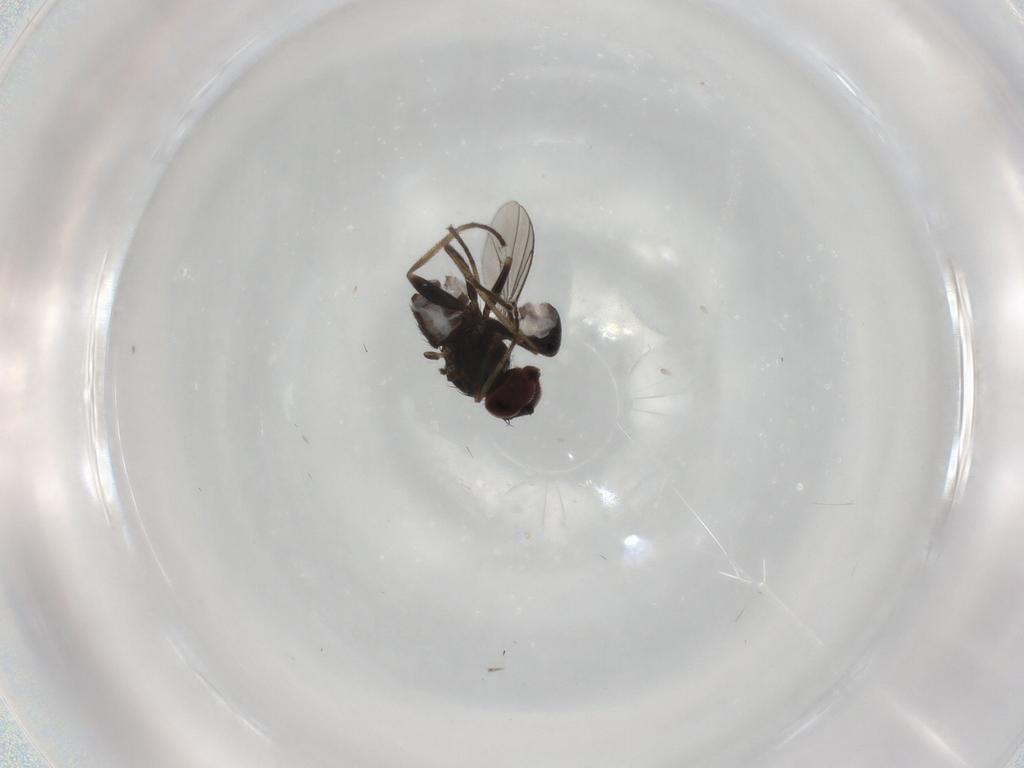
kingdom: Animalia
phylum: Arthropoda
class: Insecta
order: Diptera
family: Dolichopodidae
